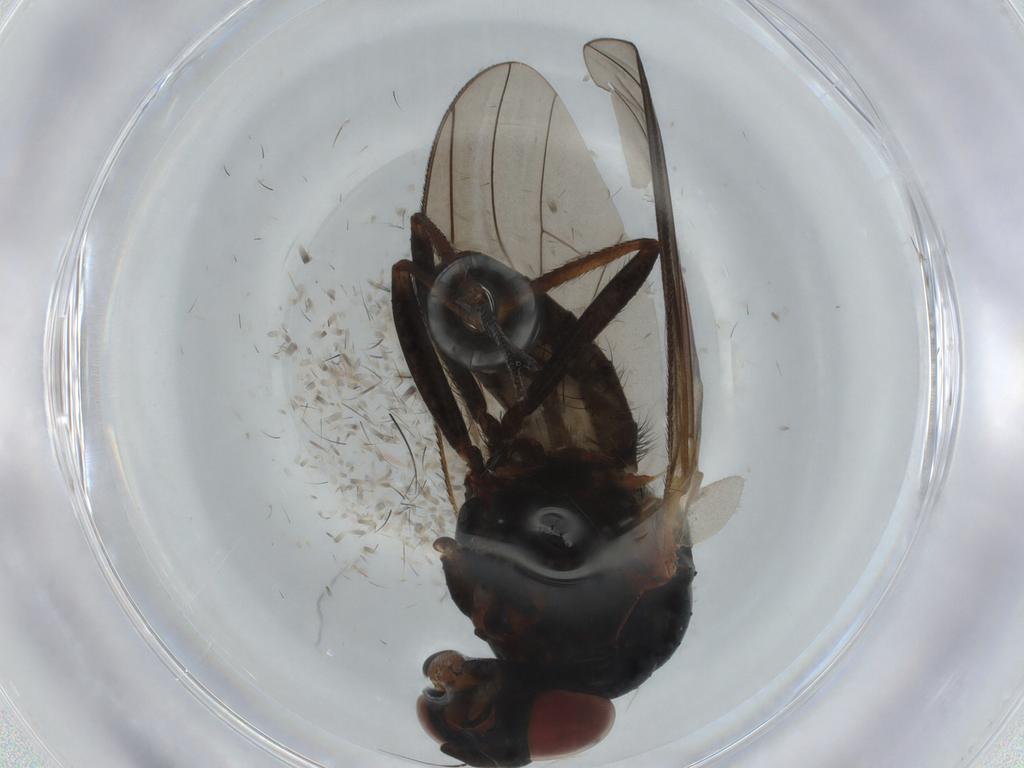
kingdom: Animalia
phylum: Arthropoda
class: Insecta
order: Diptera
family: Anthomyiidae
